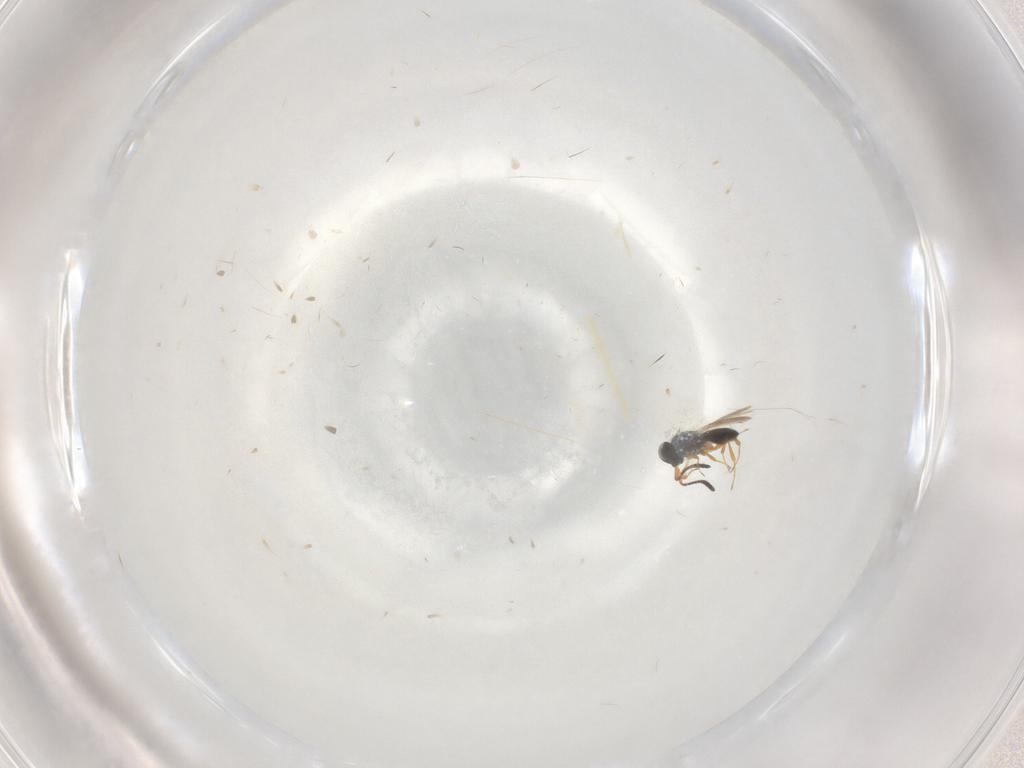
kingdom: Animalia
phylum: Arthropoda
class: Insecta
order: Hymenoptera
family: Scelionidae
